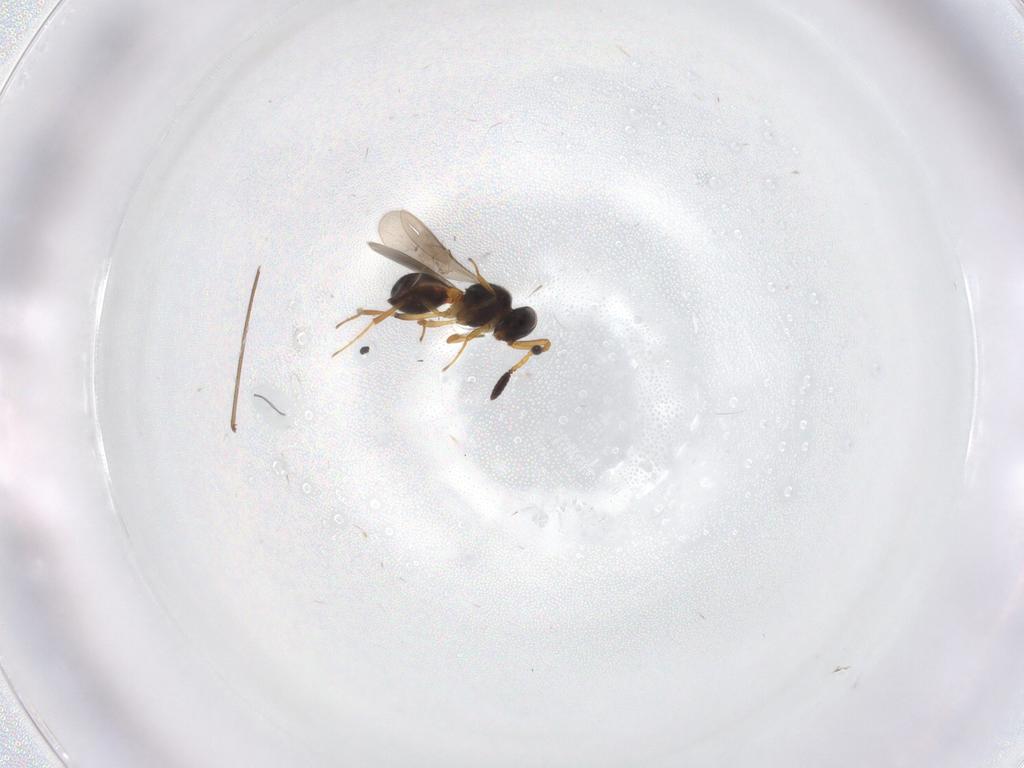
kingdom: Animalia
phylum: Arthropoda
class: Insecta
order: Hymenoptera
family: Scelionidae
